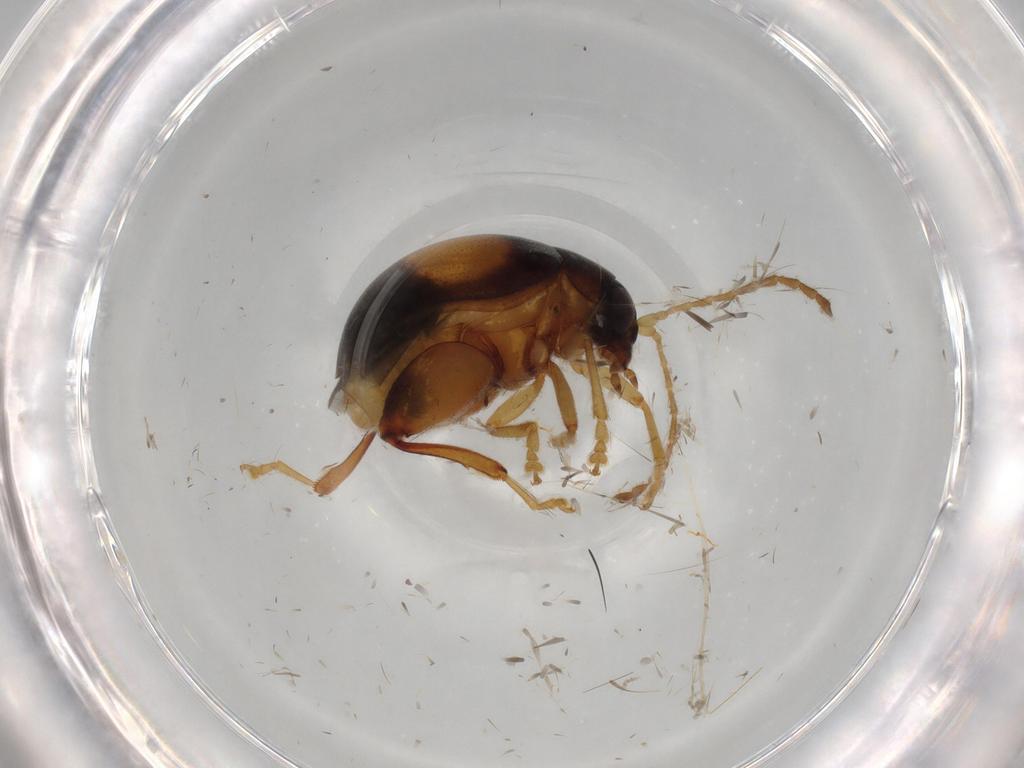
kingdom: Animalia
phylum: Arthropoda
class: Insecta
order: Coleoptera
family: Chrysomelidae
